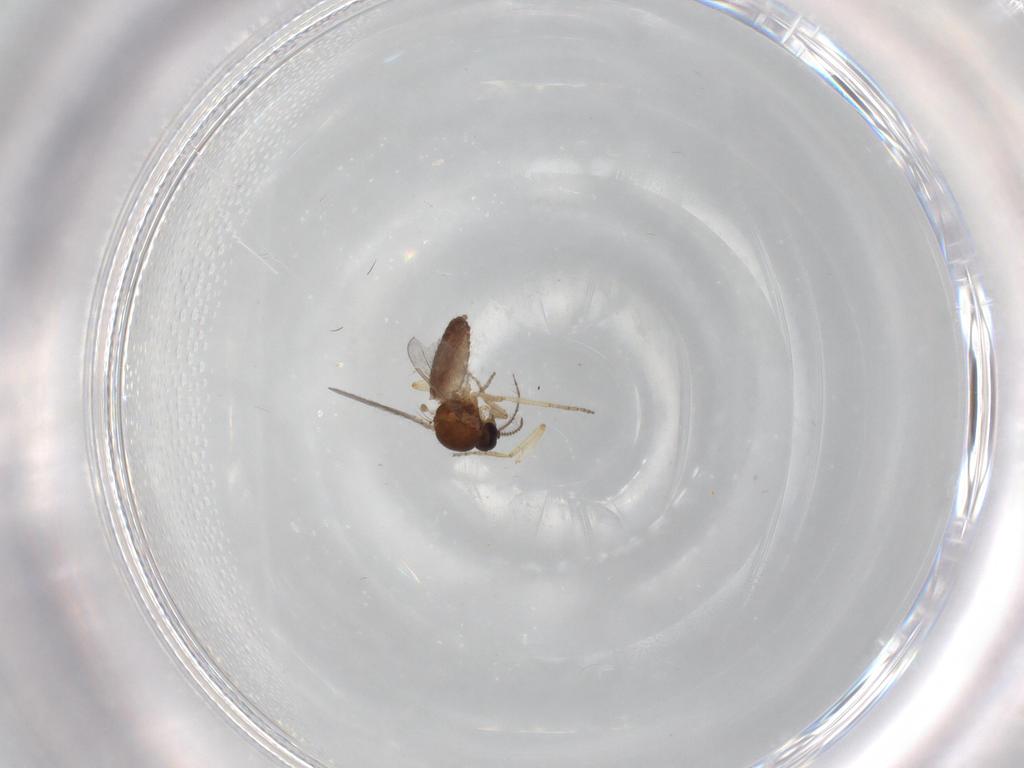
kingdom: Animalia
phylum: Arthropoda
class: Insecta
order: Diptera
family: Ceratopogonidae
